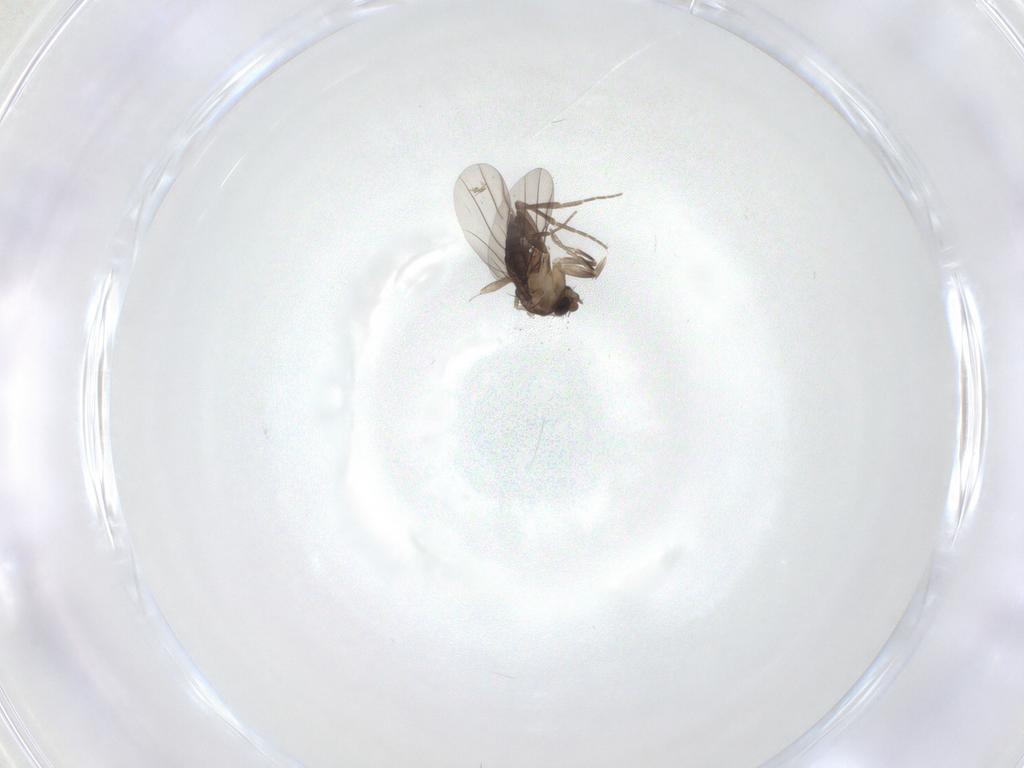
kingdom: Animalia
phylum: Arthropoda
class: Insecta
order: Diptera
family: Phoridae
